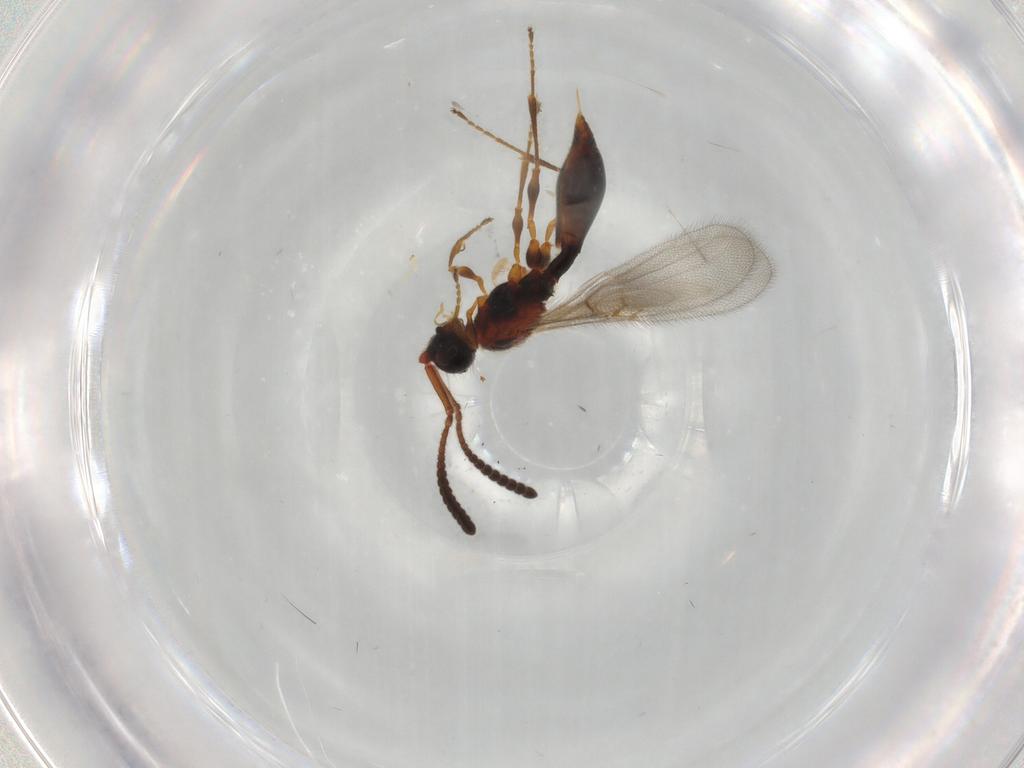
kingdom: Animalia
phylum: Arthropoda
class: Insecta
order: Hymenoptera
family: Diapriidae
